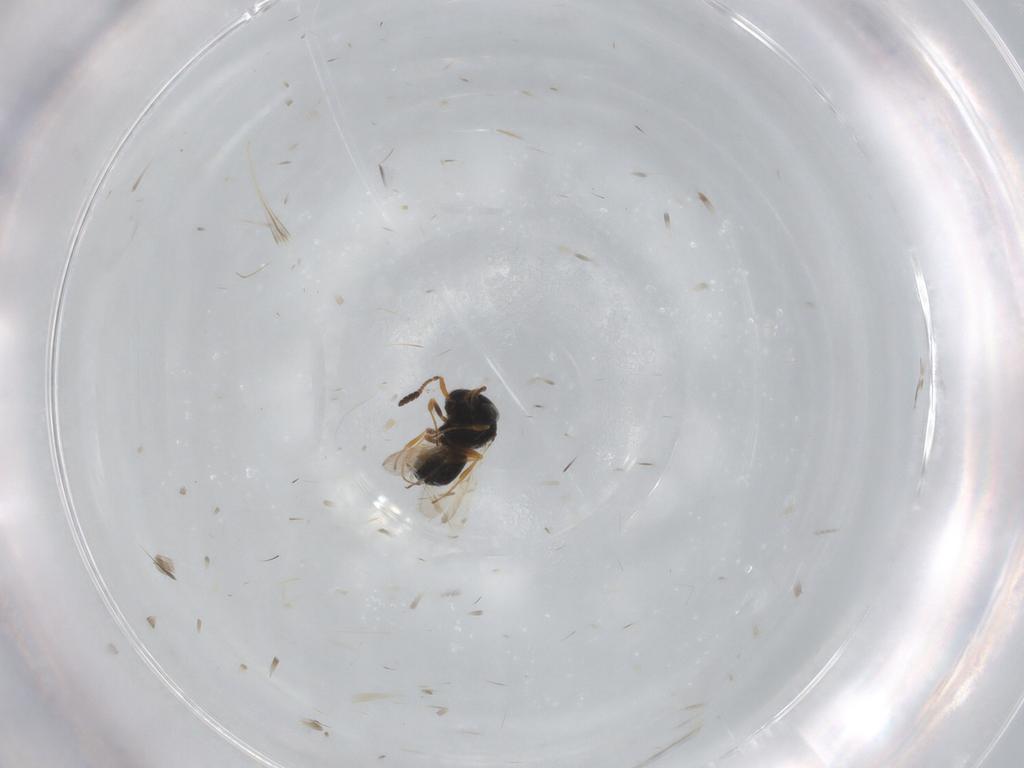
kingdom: Animalia
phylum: Arthropoda
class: Insecta
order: Hymenoptera
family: Scelionidae
